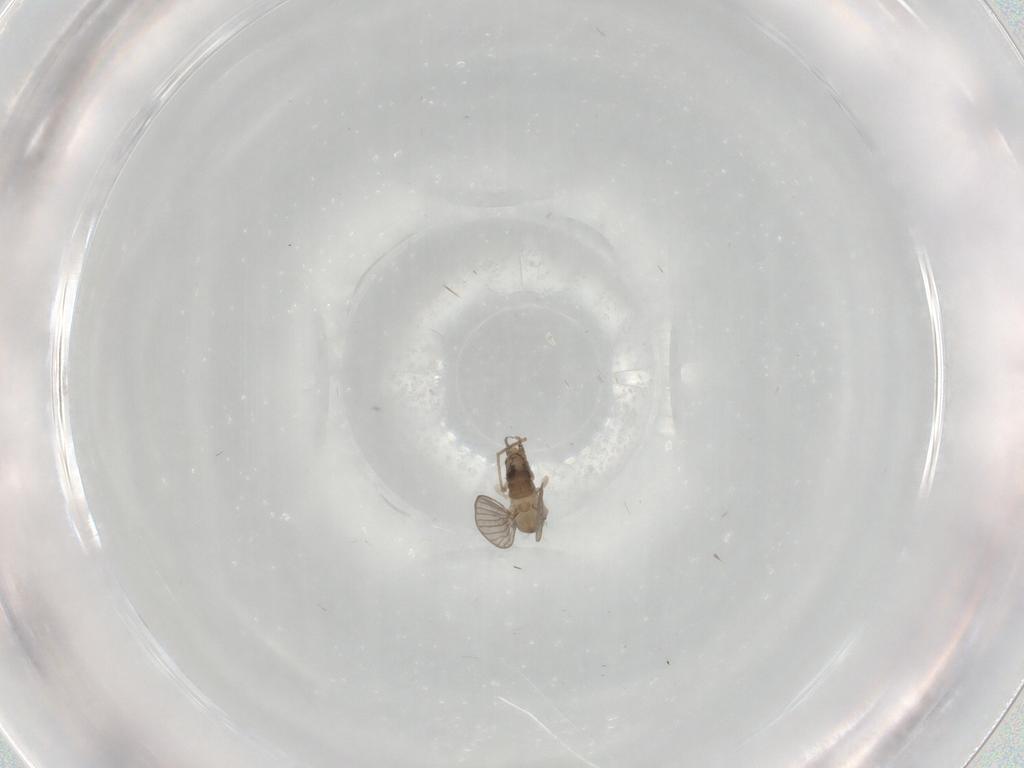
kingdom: Animalia
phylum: Arthropoda
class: Insecta
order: Diptera
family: Psychodidae
